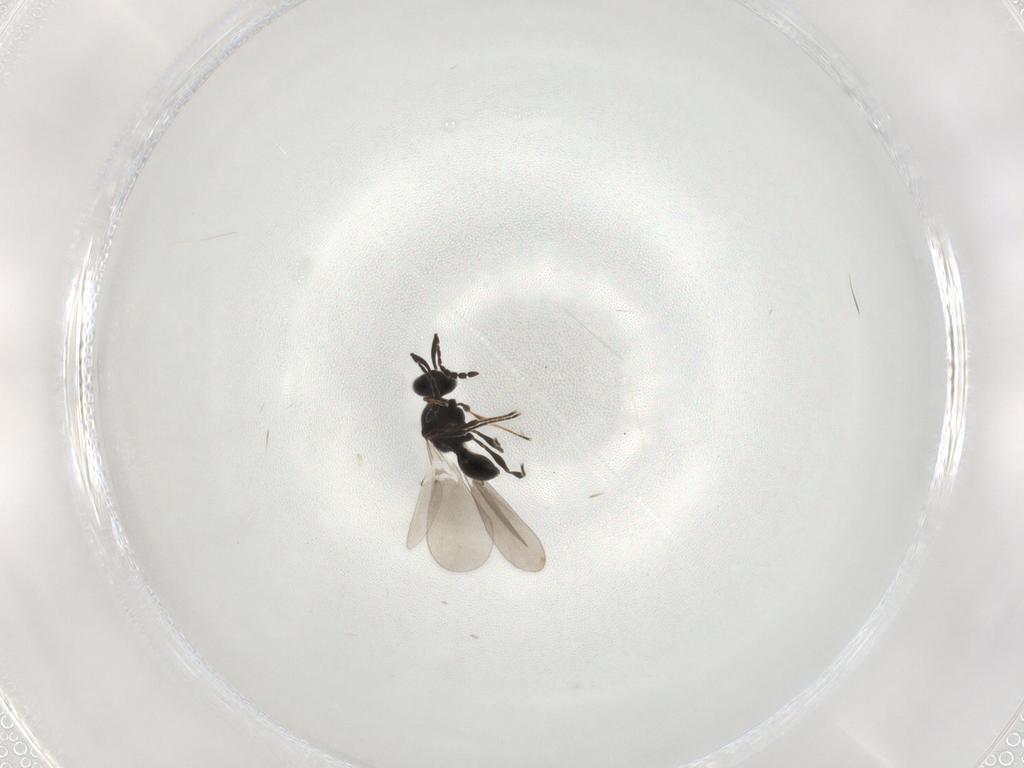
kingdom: Animalia
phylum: Arthropoda
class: Insecta
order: Hymenoptera
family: Platygastridae
